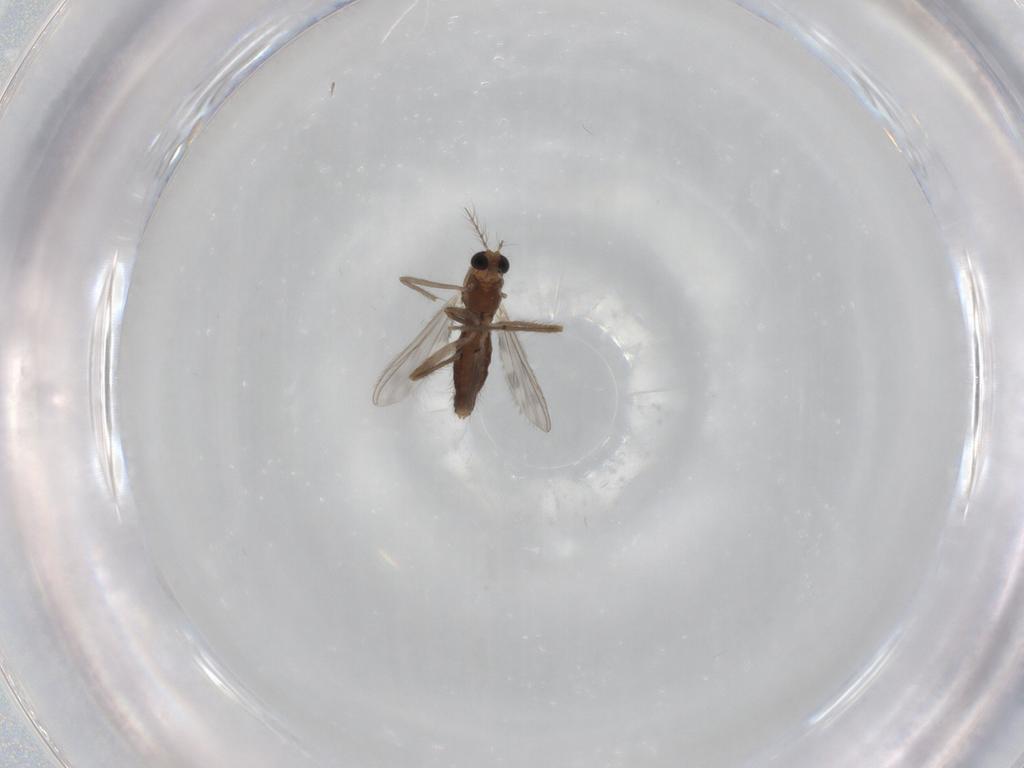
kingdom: Animalia
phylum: Arthropoda
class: Insecta
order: Diptera
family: Chironomidae
